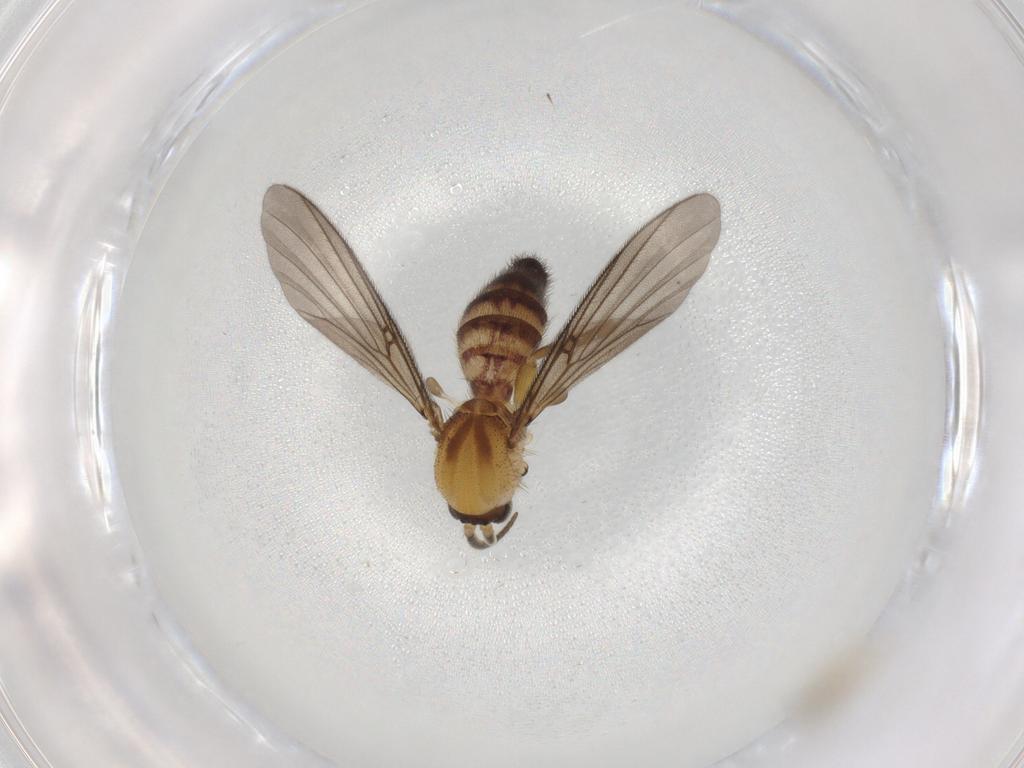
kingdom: Animalia
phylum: Arthropoda
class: Insecta
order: Diptera
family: Cecidomyiidae
